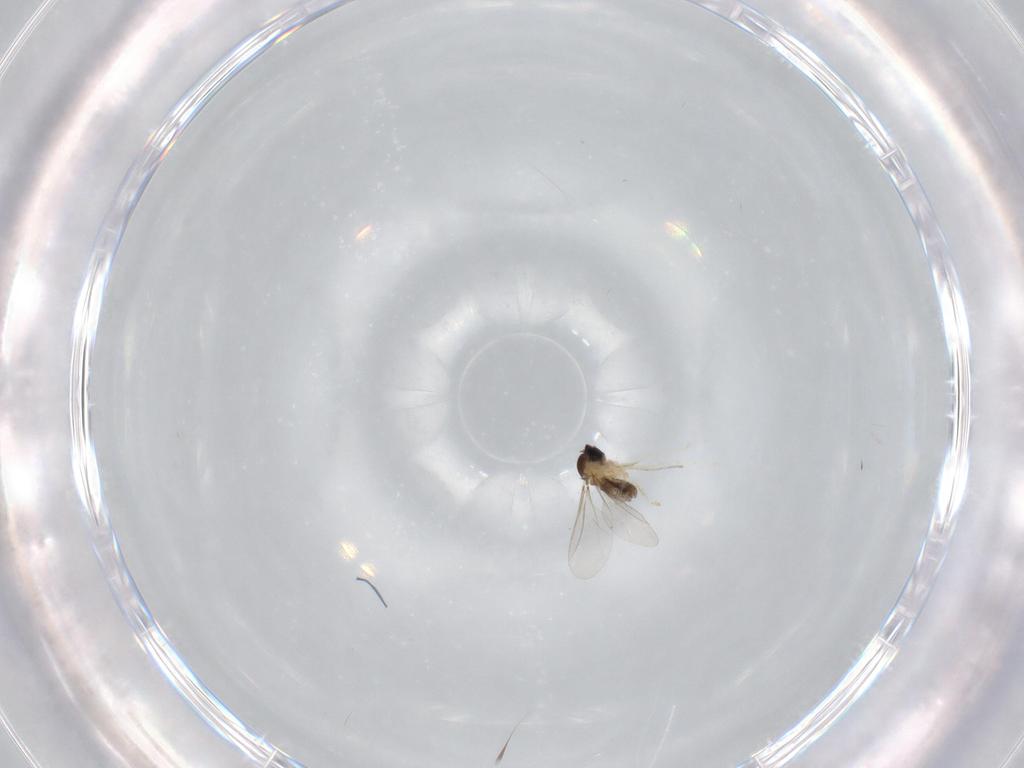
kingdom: Animalia
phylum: Arthropoda
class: Insecta
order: Diptera
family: Cecidomyiidae
